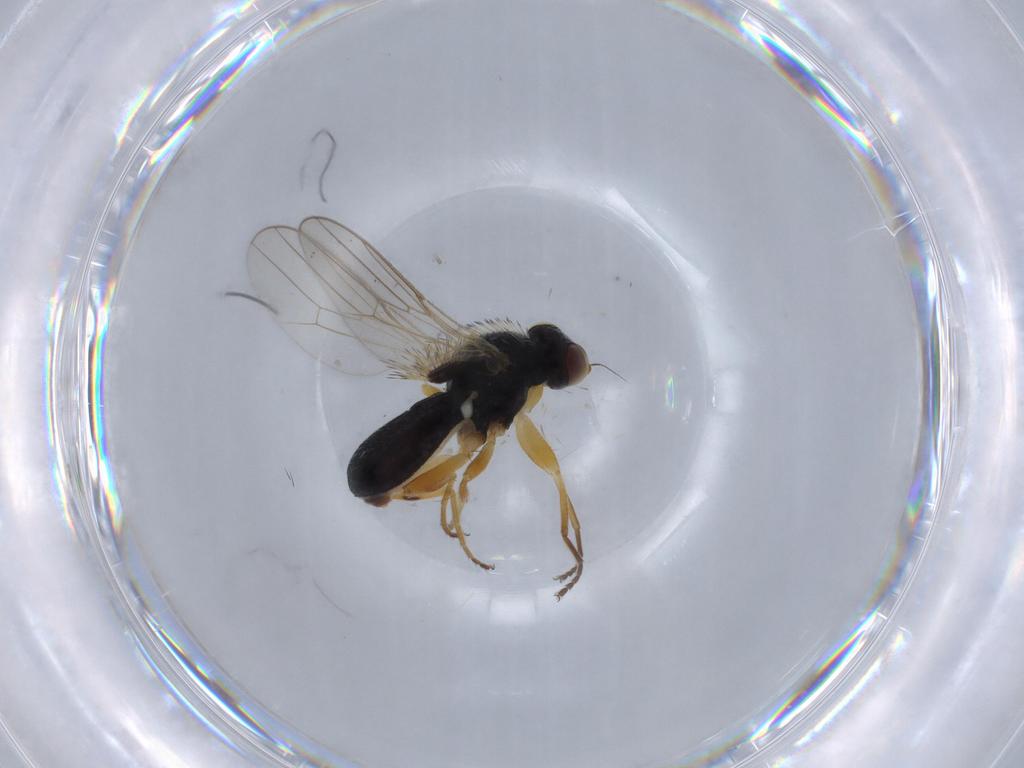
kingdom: Animalia
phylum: Arthropoda
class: Insecta
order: Diptera
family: Chloropidae
